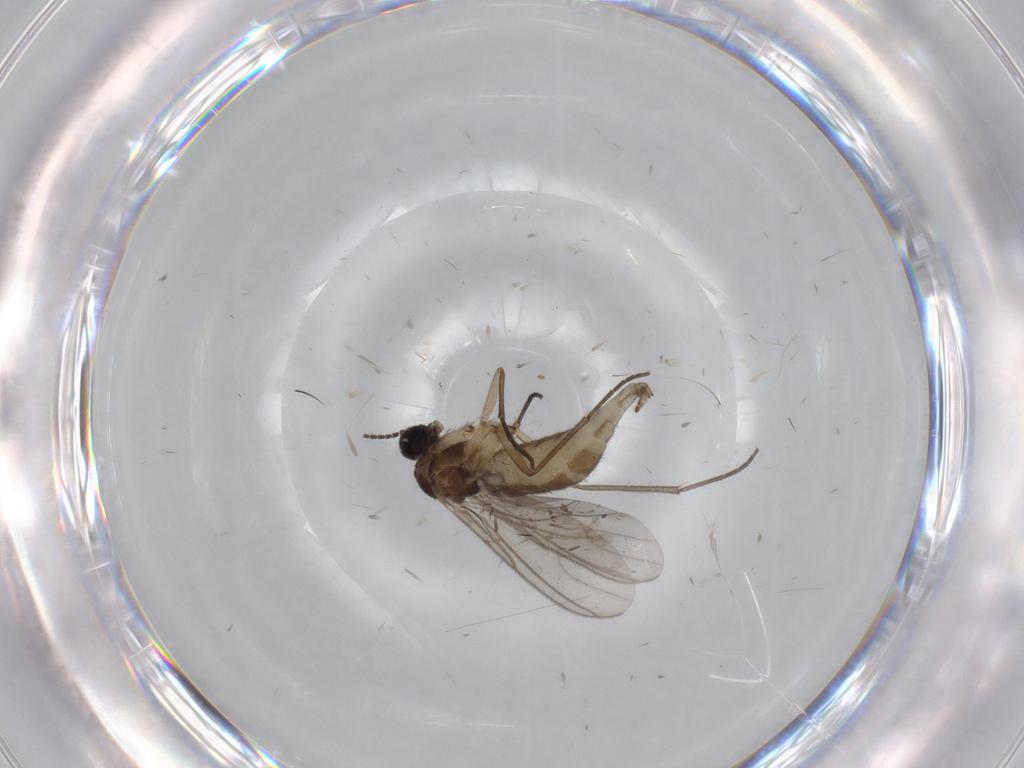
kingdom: Animalia
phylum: Arthropoda
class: Insecta
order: Diptera
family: Sciaridae
